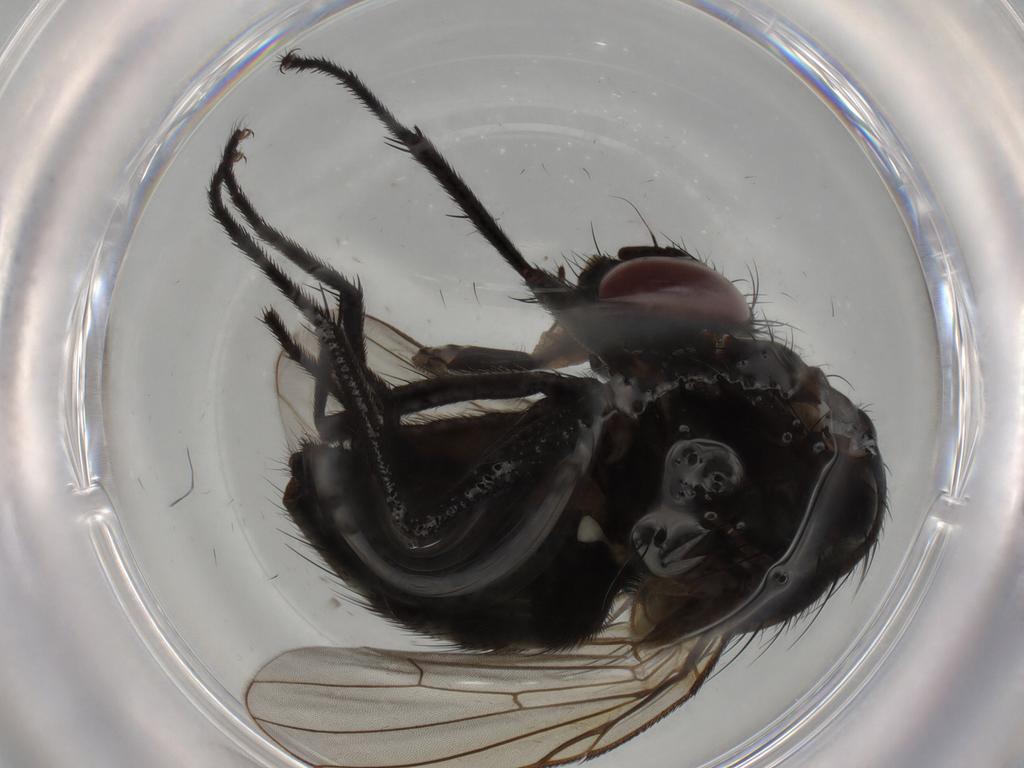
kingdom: Animalia
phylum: Arthropoda
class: Insecta
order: Diptera
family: Muscidae
